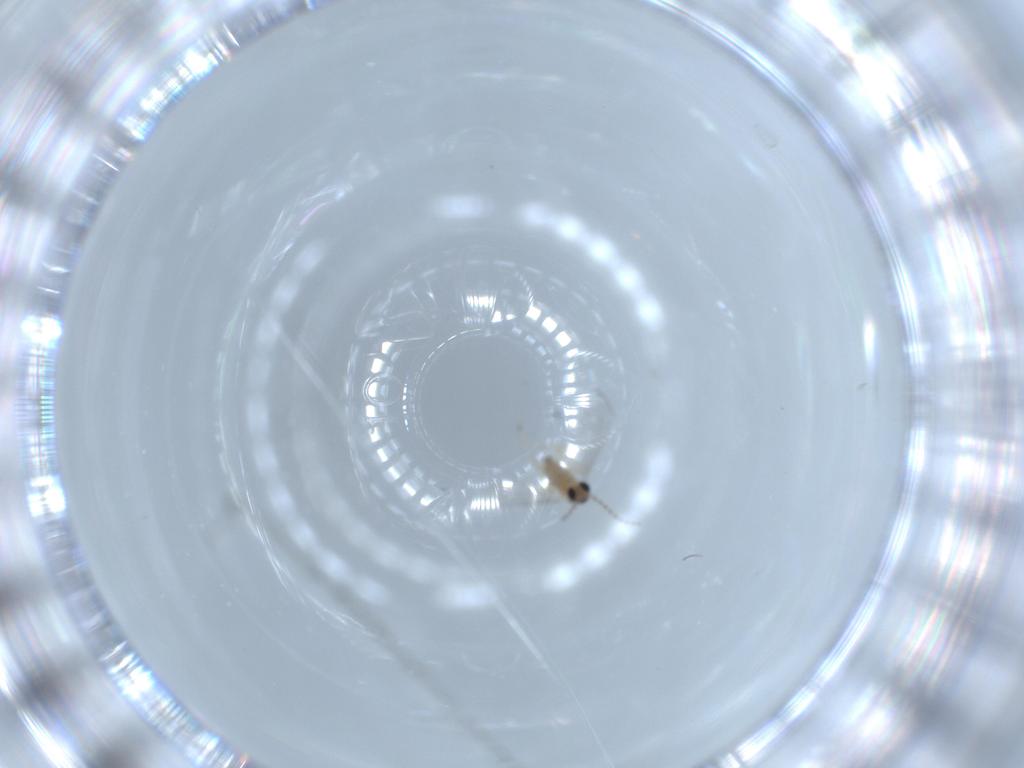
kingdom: Animalia
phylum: Arthropoda
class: Insecta
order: Diptera
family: Cecidomyiidae
